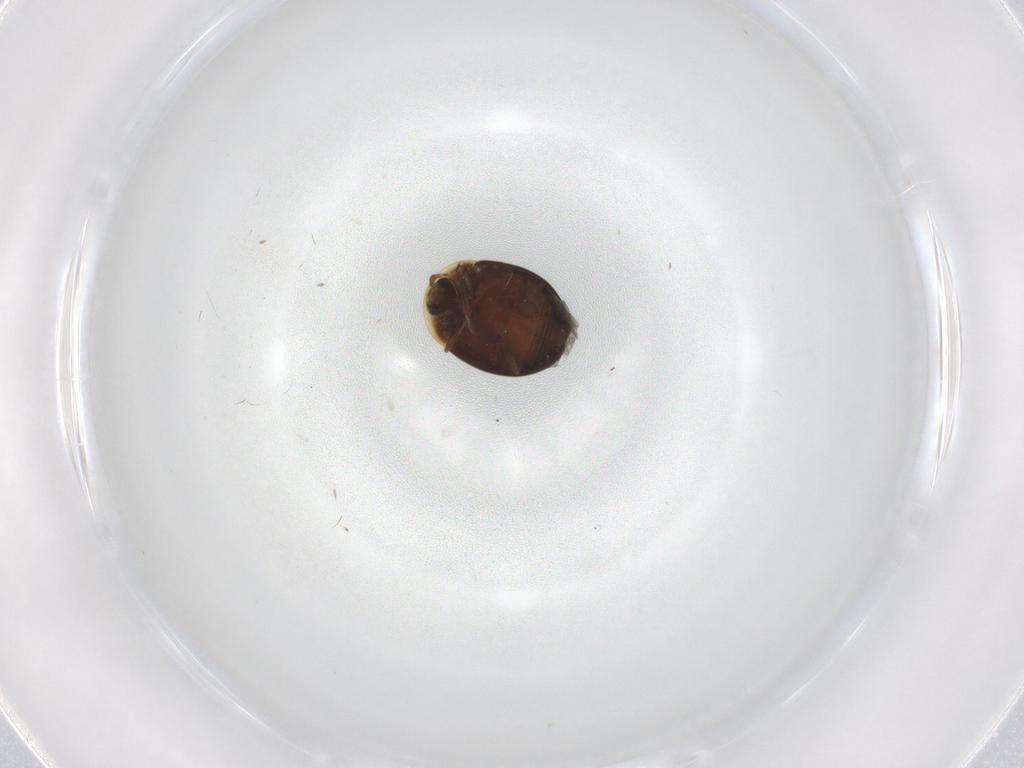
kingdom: Animalia
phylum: Arthropoda
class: Insecta
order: Coleoptera
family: Corylophidae
